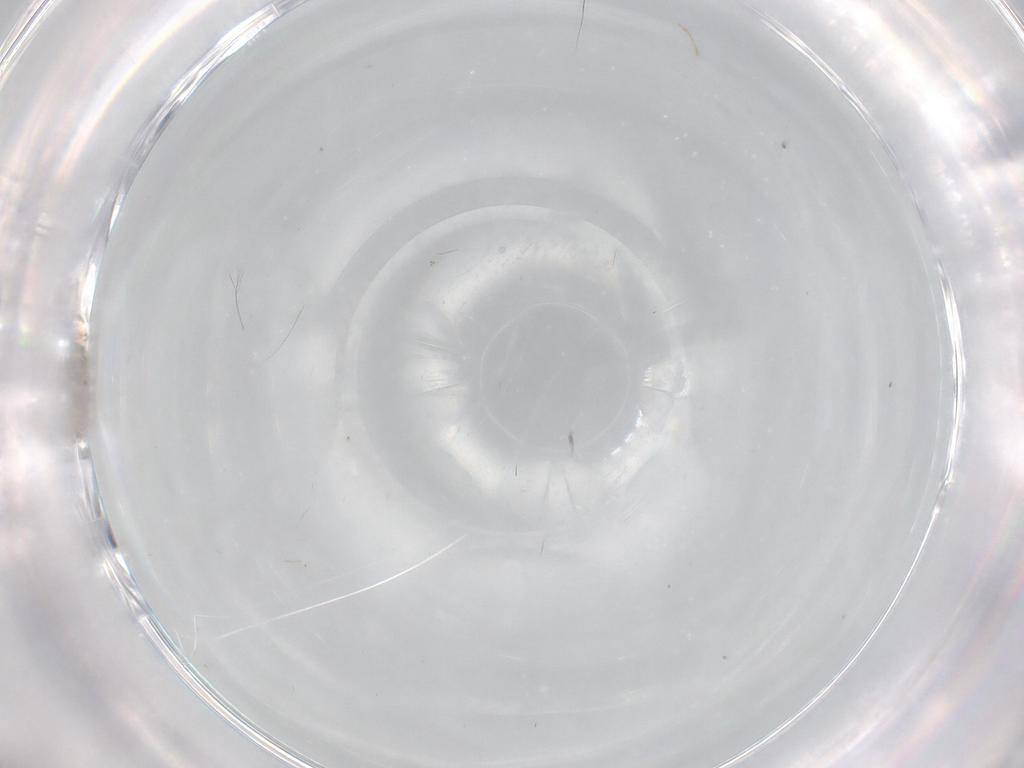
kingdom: Animalia
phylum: Arthropoda
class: Insecta
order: Diptera
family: Cecidomyiidae
